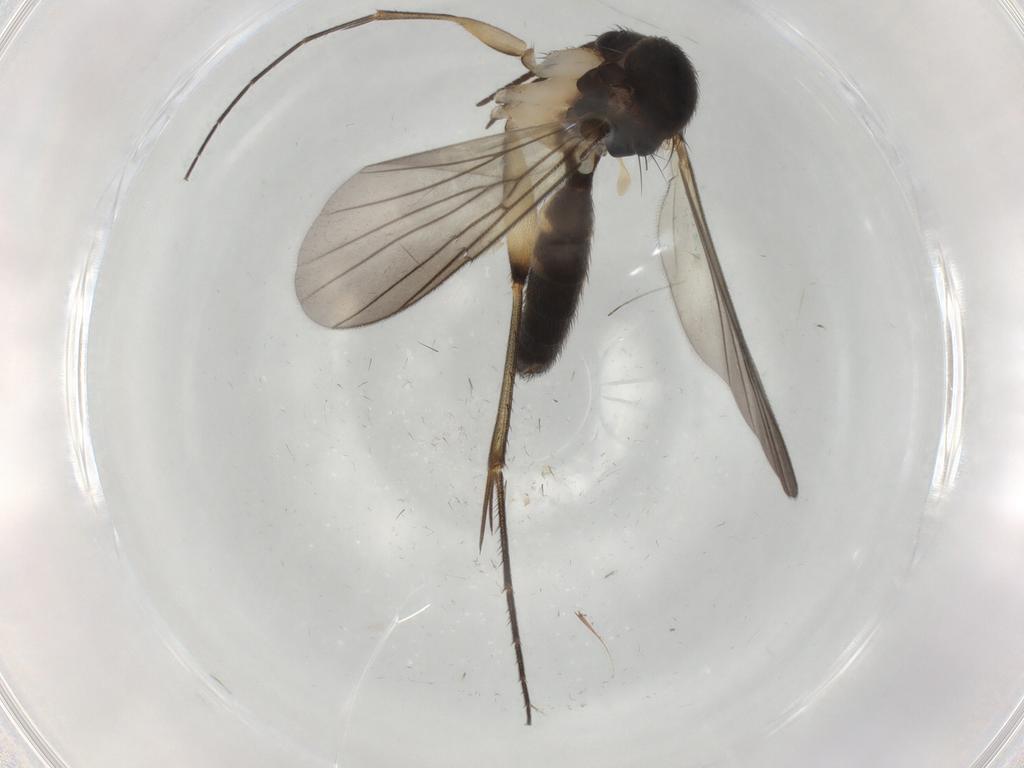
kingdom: Animalia
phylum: Arthropoda
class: Insecta
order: Diptera
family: Mycetophilidae
